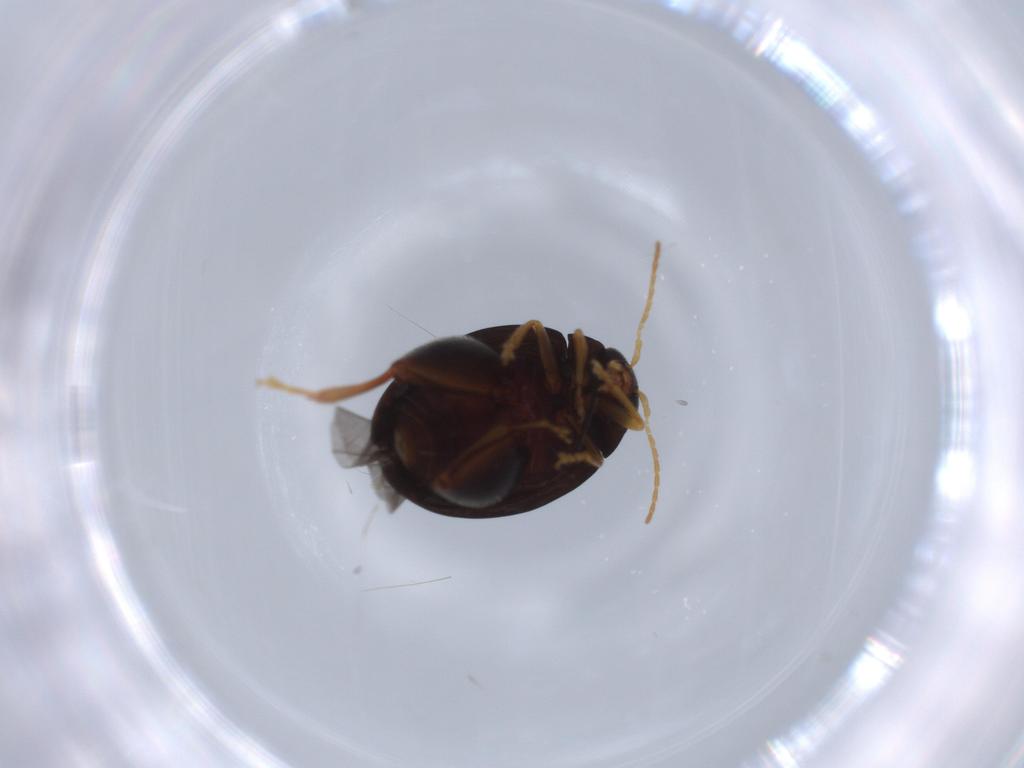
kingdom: Animalia
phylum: Arthropoda
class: Insecta
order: Coleoptera
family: Chrysomelidae
